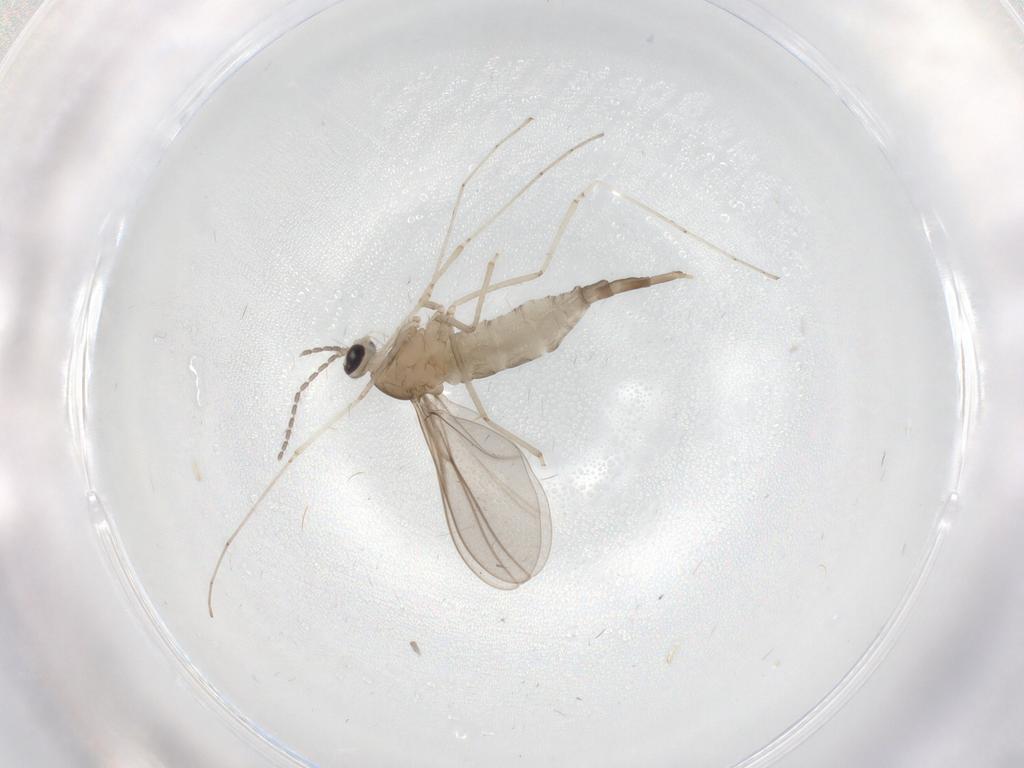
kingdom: Animalia
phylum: Arthropoda
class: Insecta
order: Diptera
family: Cecidomyiidae
